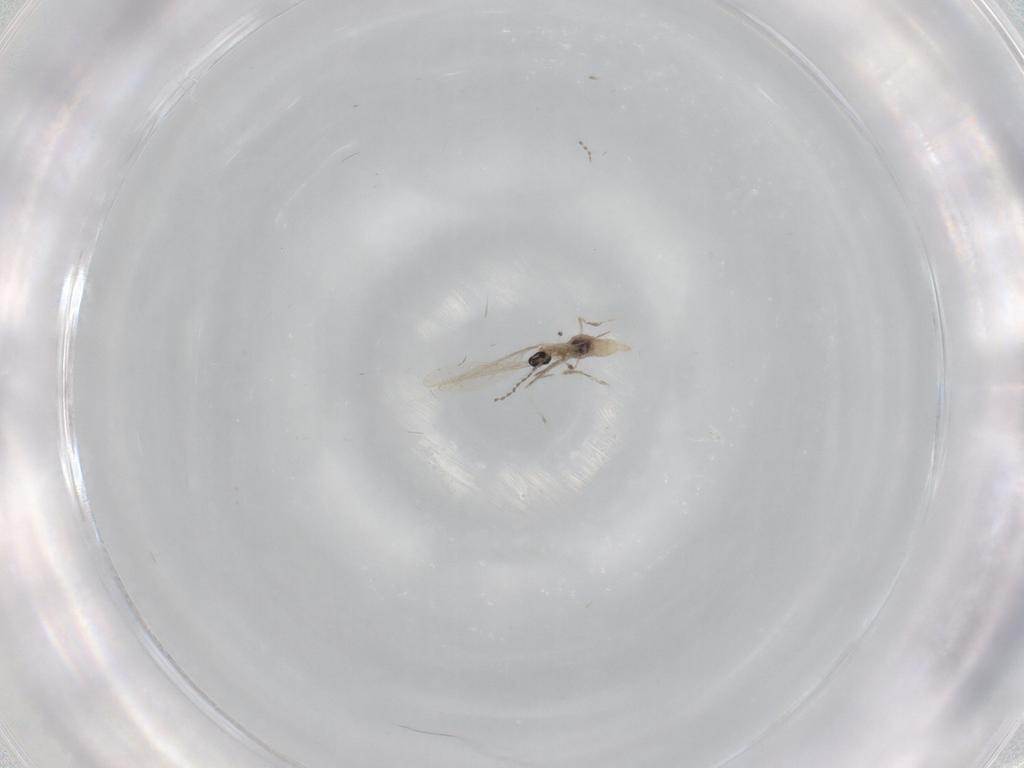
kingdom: Animalia
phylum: Arthropoda
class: Insecta
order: Diptera
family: Cecidomyiidae
